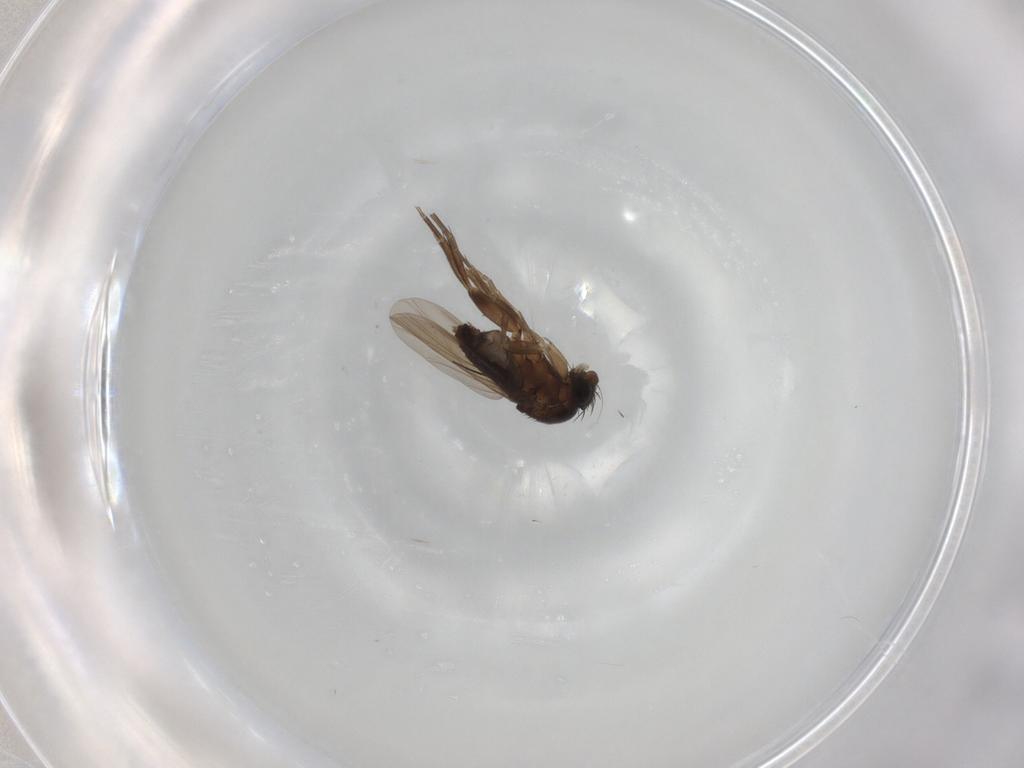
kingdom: Animalia
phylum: Arthropoda
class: Insecta
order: Diptera
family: Phoridae
